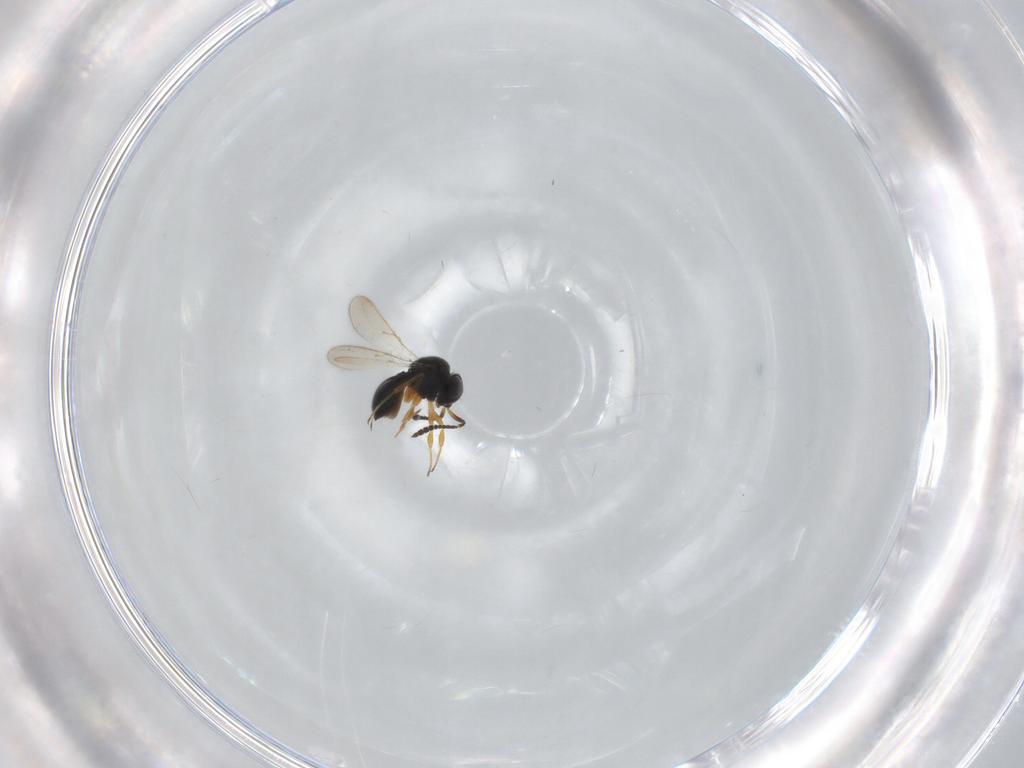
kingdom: Animalia
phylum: Arthropoda
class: Insecta
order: Hymenoptera
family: Scelionidae
